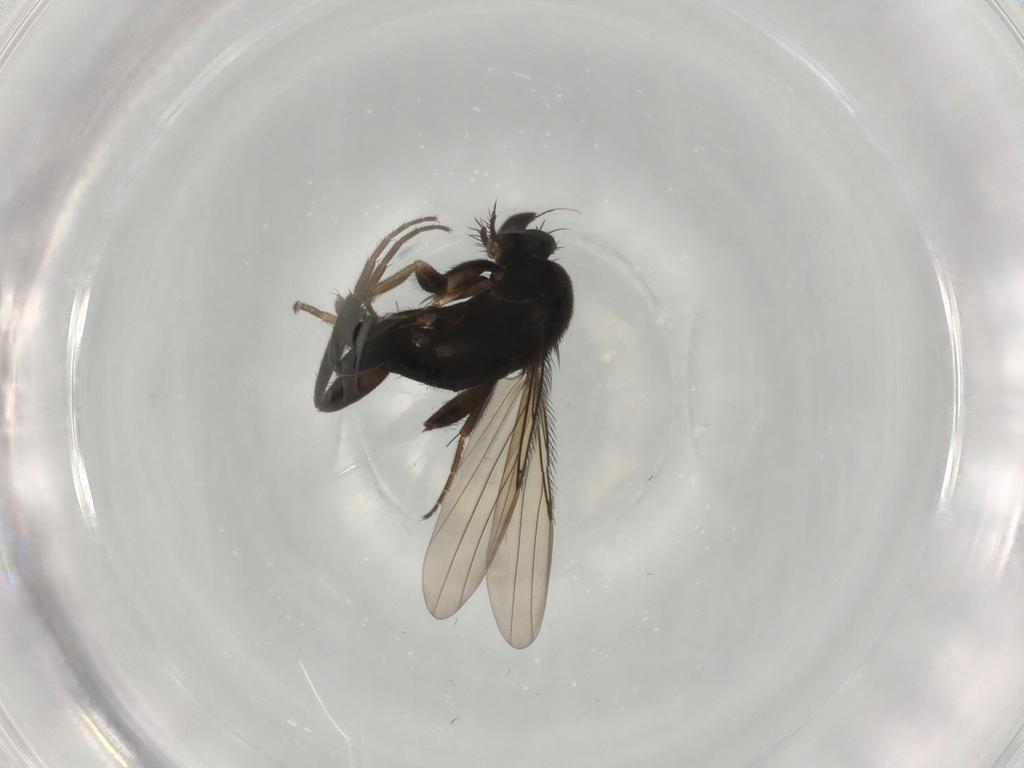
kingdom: Animalia
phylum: Arthropoda
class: Insecta
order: Diptera
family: Phoridae
